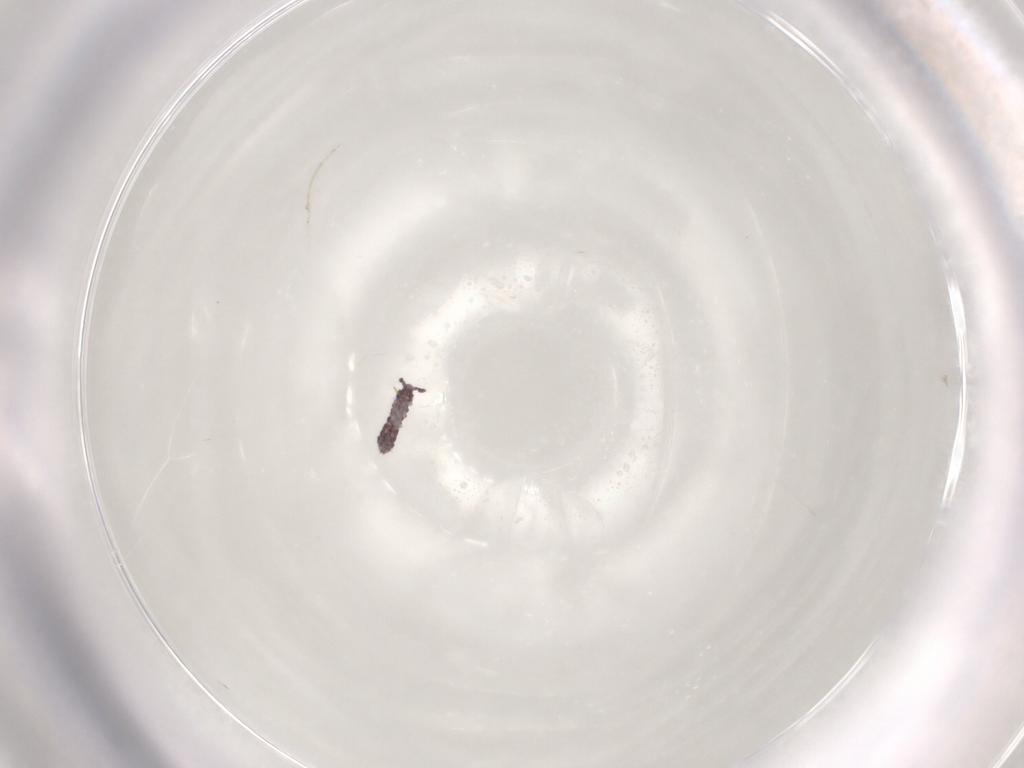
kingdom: Animalia
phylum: Arthropoda
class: Collembola
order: Poduromorpha
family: Hypogastruridae
